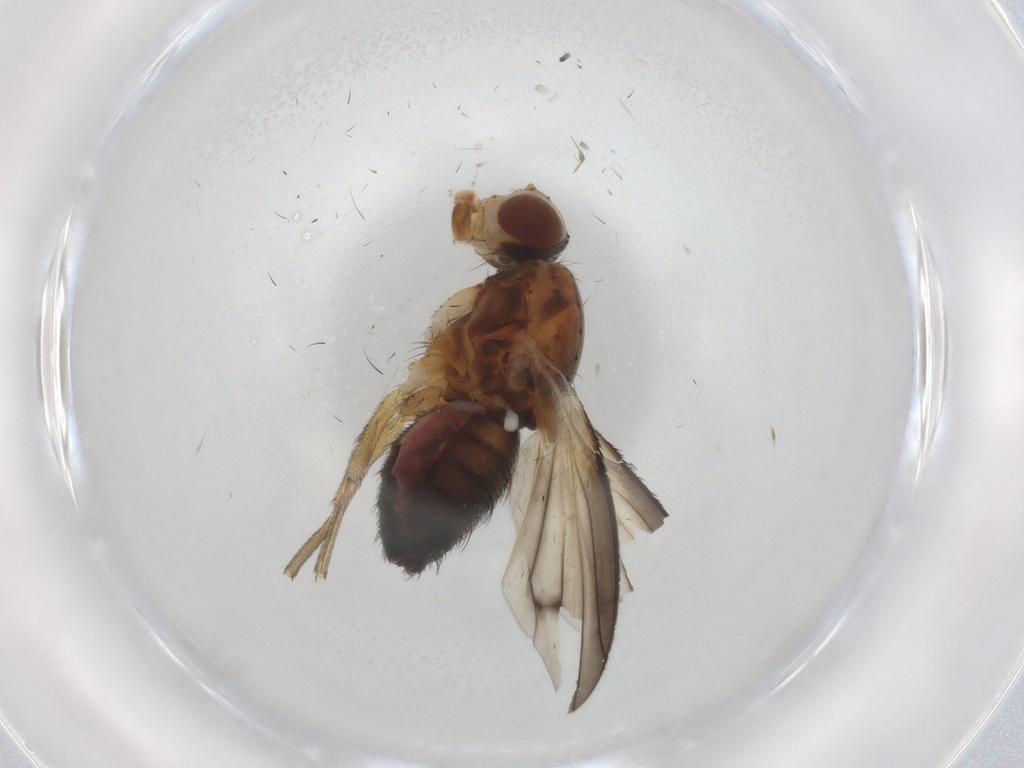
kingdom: Animalia
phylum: Arthropoda
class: Insecta
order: Diptera
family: Heleomyzidae
